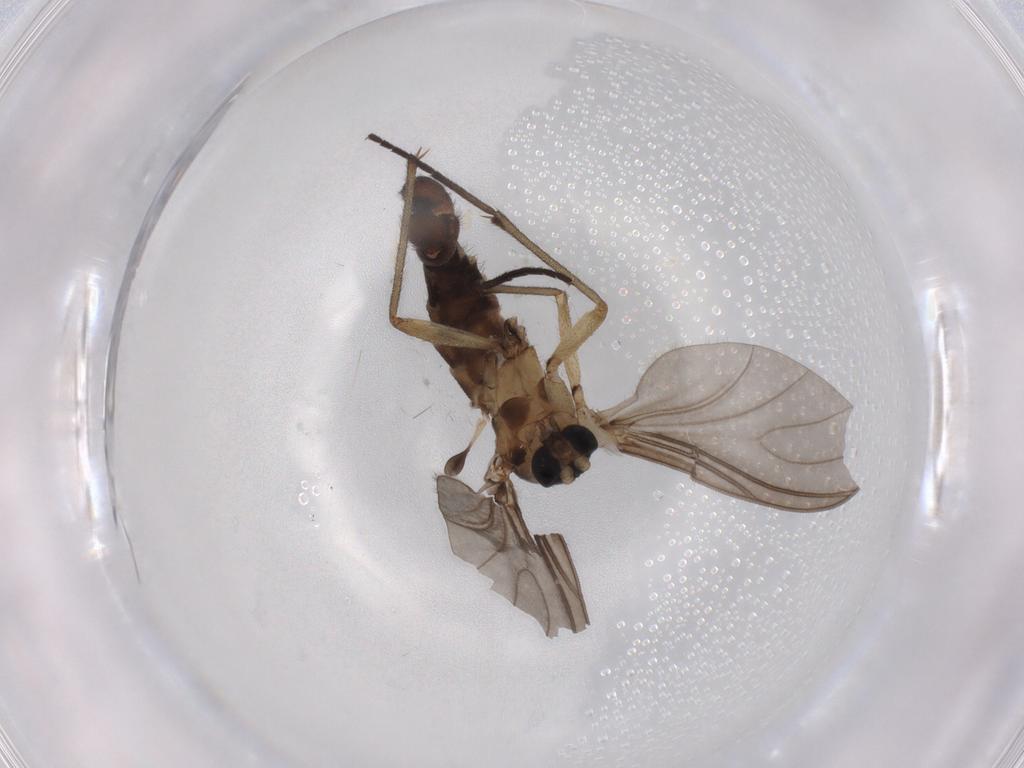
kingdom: Animalia
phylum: Arthropoda
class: Insecta
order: Diptera
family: Sciaridae
